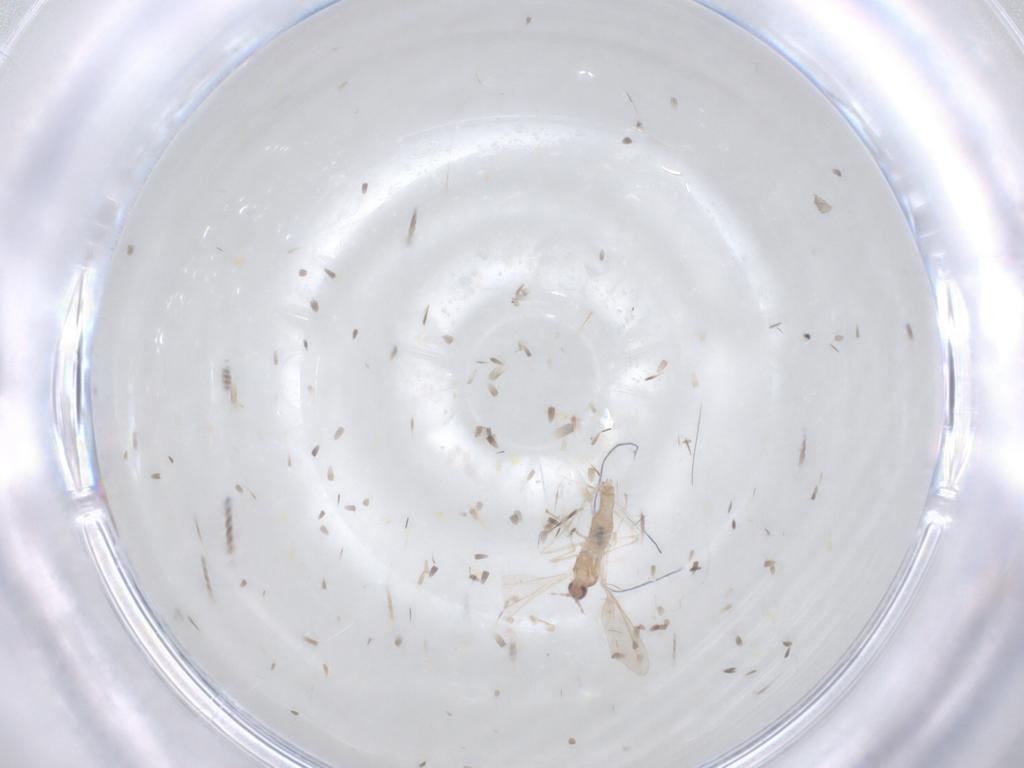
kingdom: Animalia
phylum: Arthropoda
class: Insecta
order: Diptera
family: Cecidomyiidae
